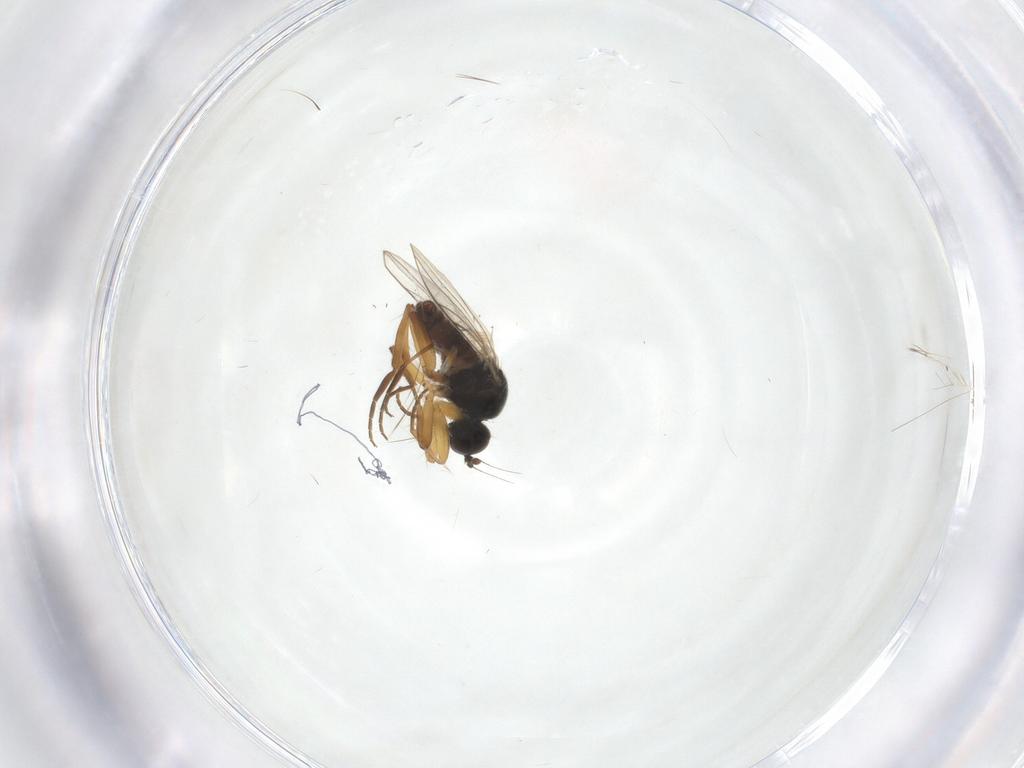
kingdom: Animalia
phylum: Arthropoda
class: Insecta
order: Diptera
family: Hybotidae
